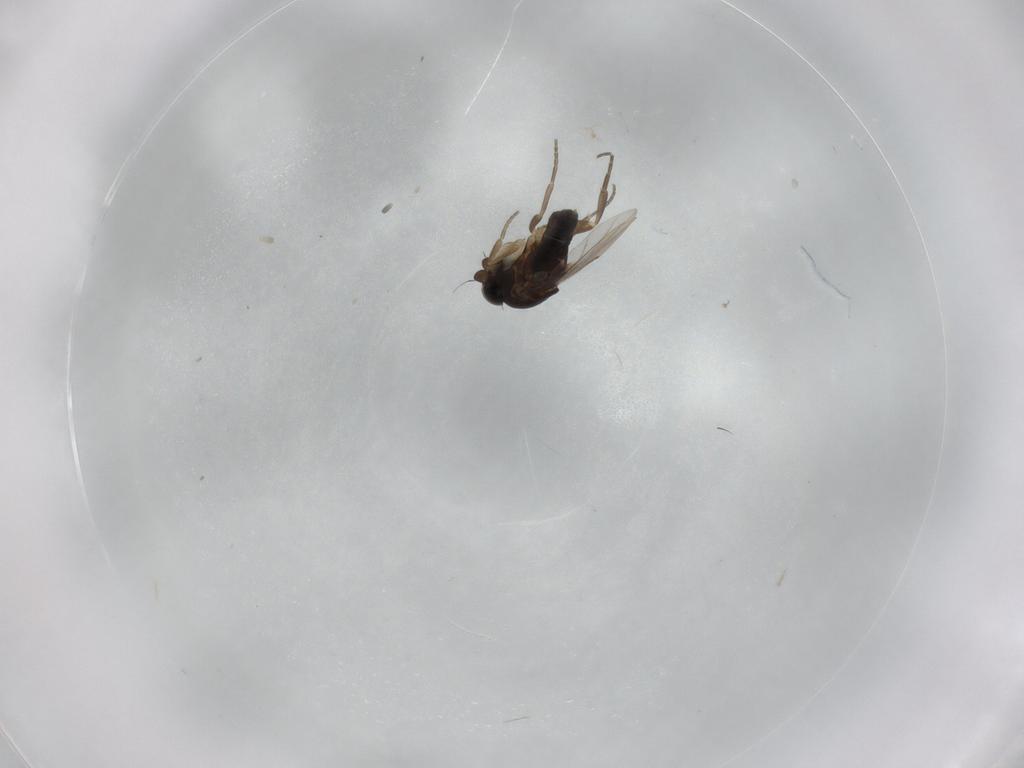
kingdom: Animalia
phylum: Arthropoda
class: Insecta
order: Diptera
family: Phoridae
